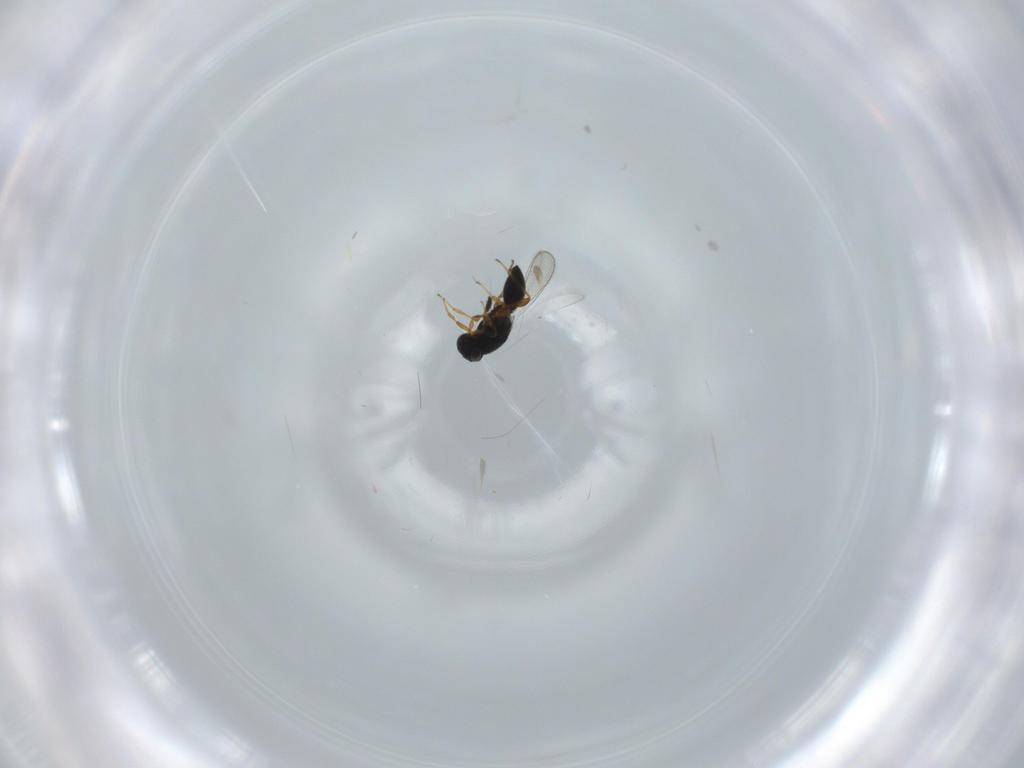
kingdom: Animalia
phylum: Arthropoda
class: Insecta
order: Hymenoptera
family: Platygastridae
